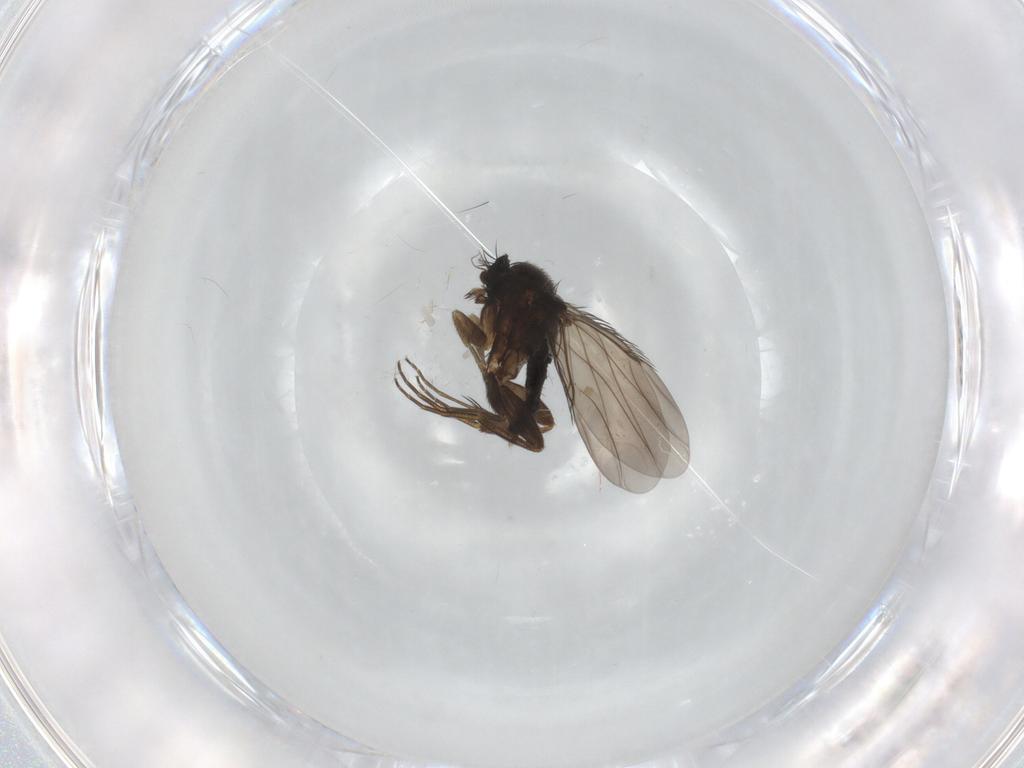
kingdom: Animalia
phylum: Arthropoda
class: Insecta
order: Diptera
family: Phoridae
